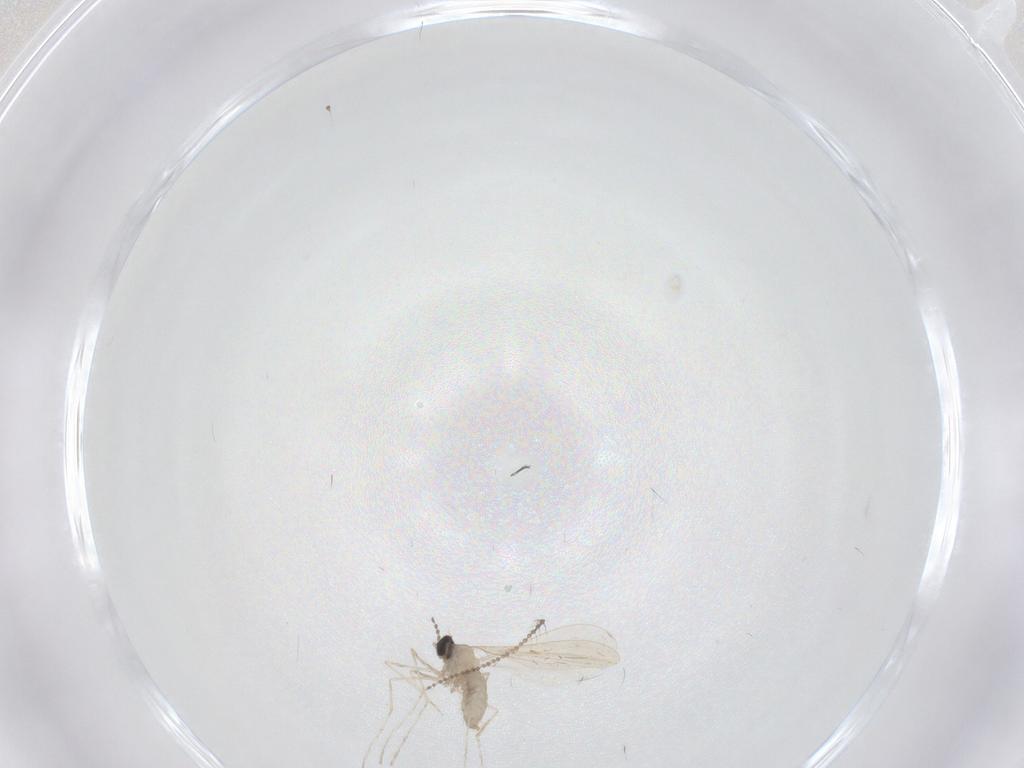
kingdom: Animalia
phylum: Arthropoda
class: Insecta
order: Diptera
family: Cecidomyiidae
